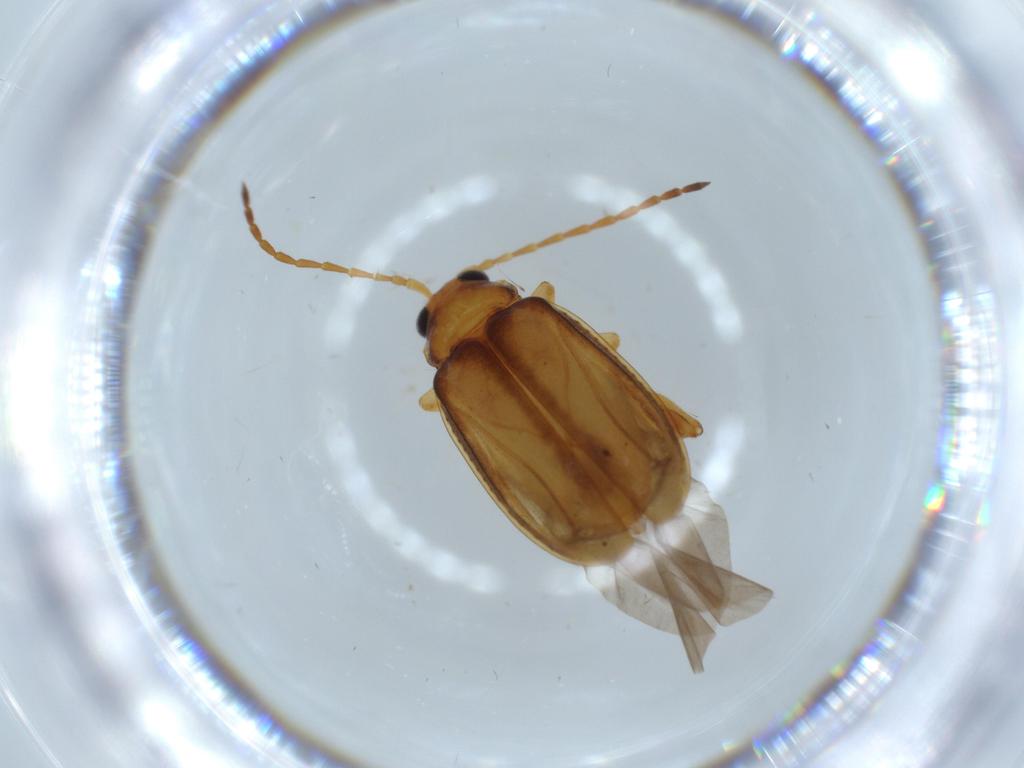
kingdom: Animalia
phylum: Arthropoda
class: Insecta
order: Coleoptera
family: Chrysomelidae
